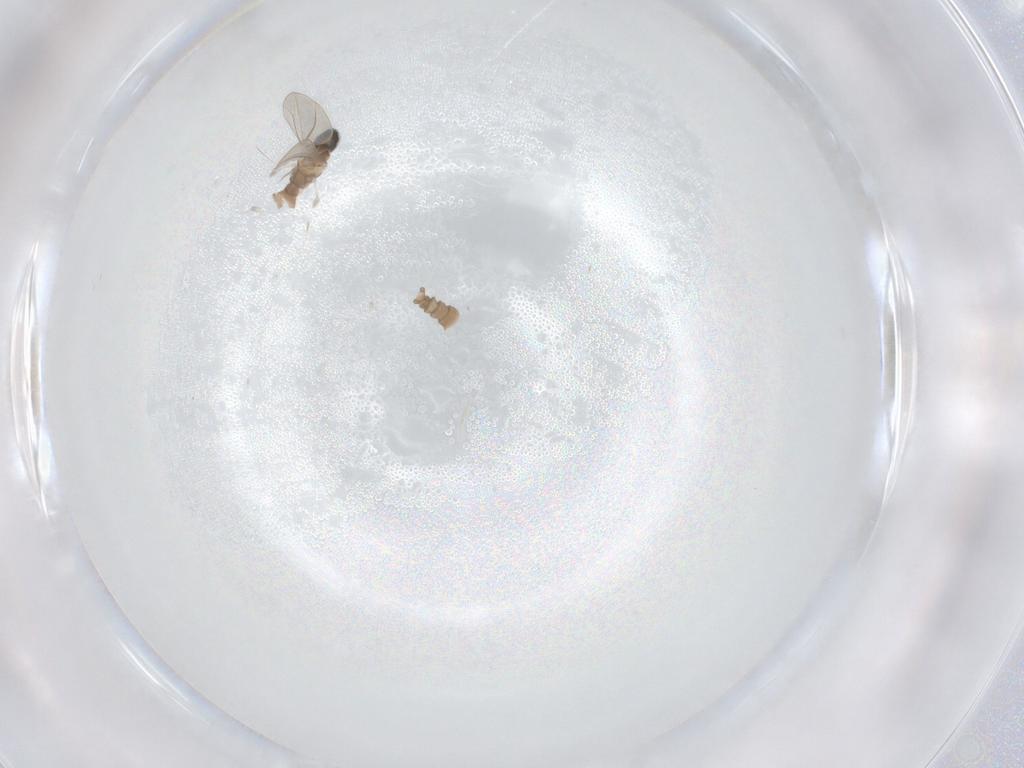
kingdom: Animalia
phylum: Arthropoda
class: Insecta
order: Diptera
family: Cecidomyiidae
